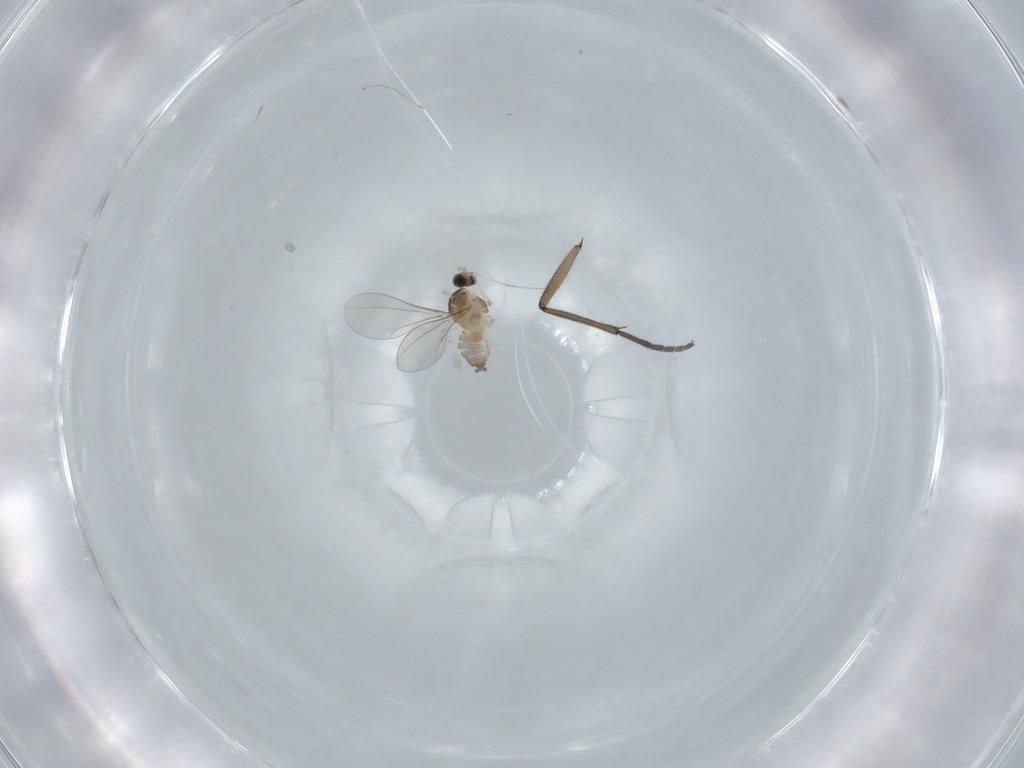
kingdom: Animalia
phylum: Arthropoda
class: Insecta
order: Diptera
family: Cecidomyiidae
